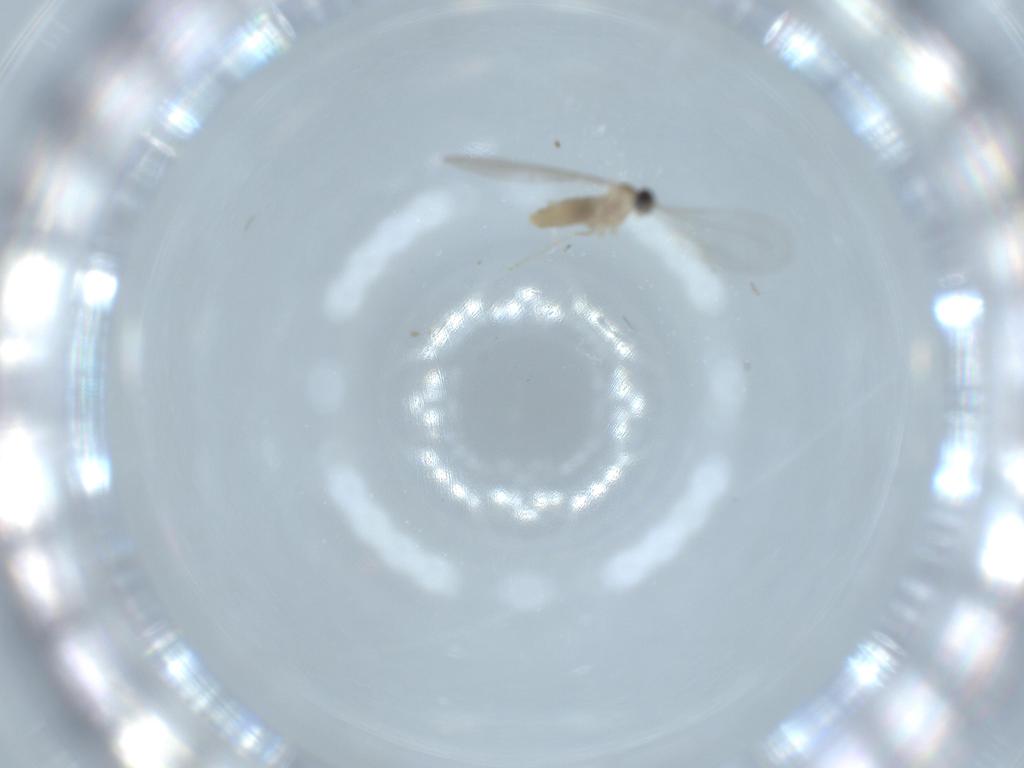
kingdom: Animalia
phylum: Arthropoda
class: Insecta
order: Diptera
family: Cecidomyiidae
